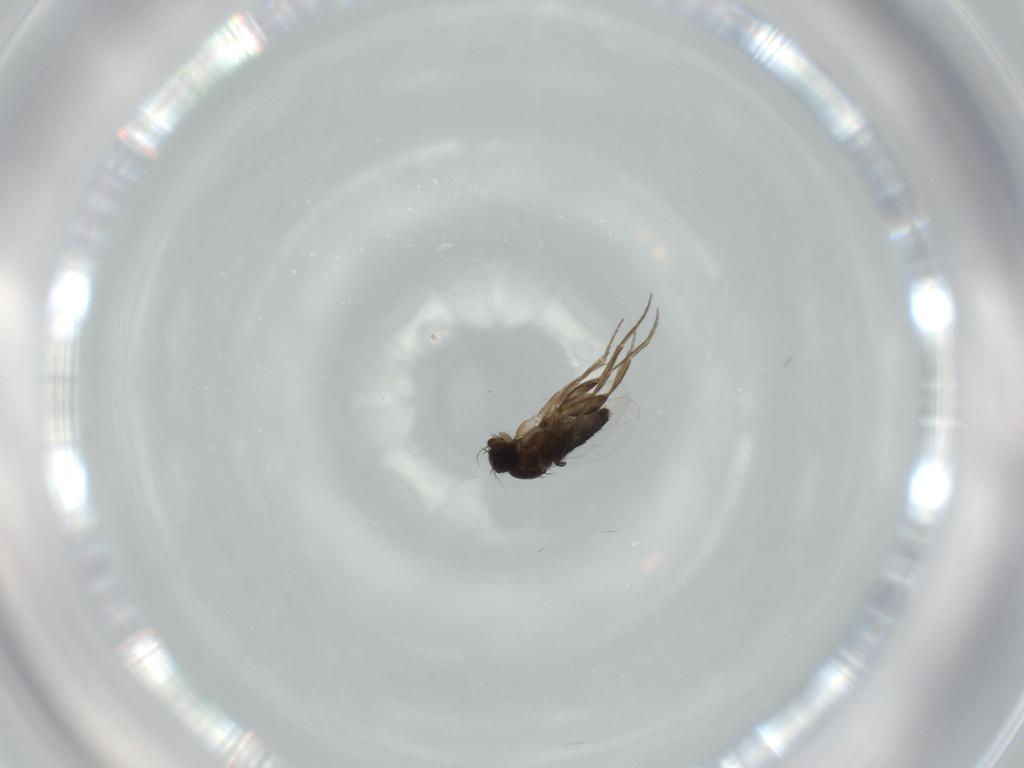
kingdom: Animalia
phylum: Arthropoda
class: Insecta
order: Diptera
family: Phoridae
